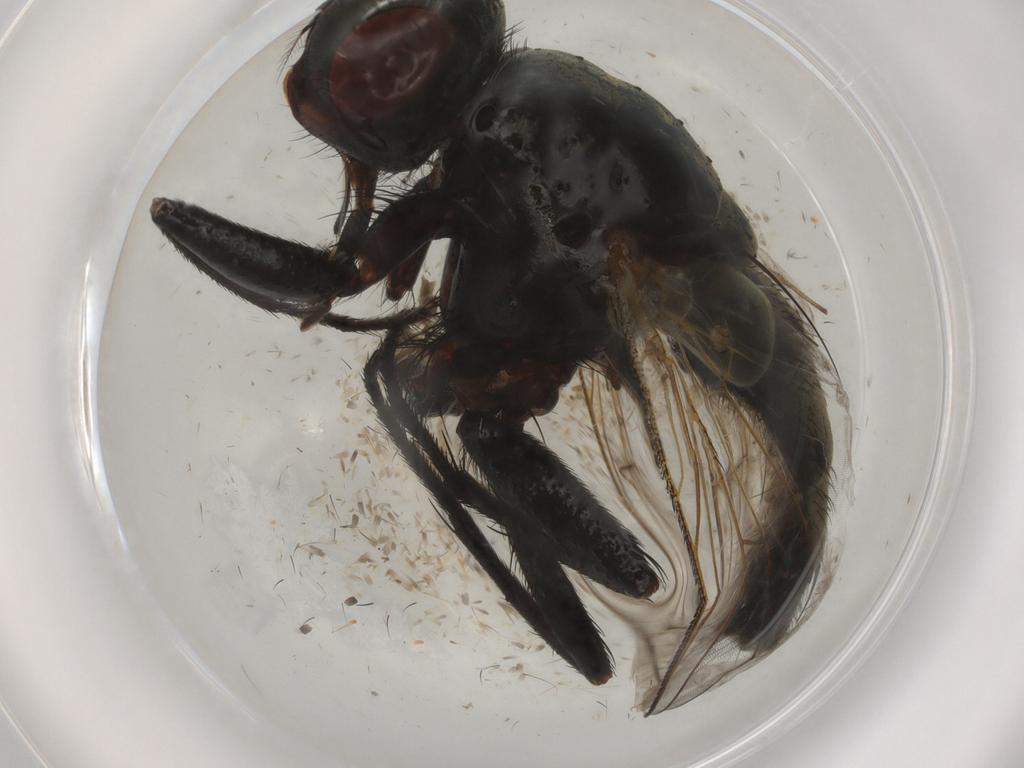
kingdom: Animalia
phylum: Arthropoda
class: Insecta
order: Diptera
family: Sarcophagidae
